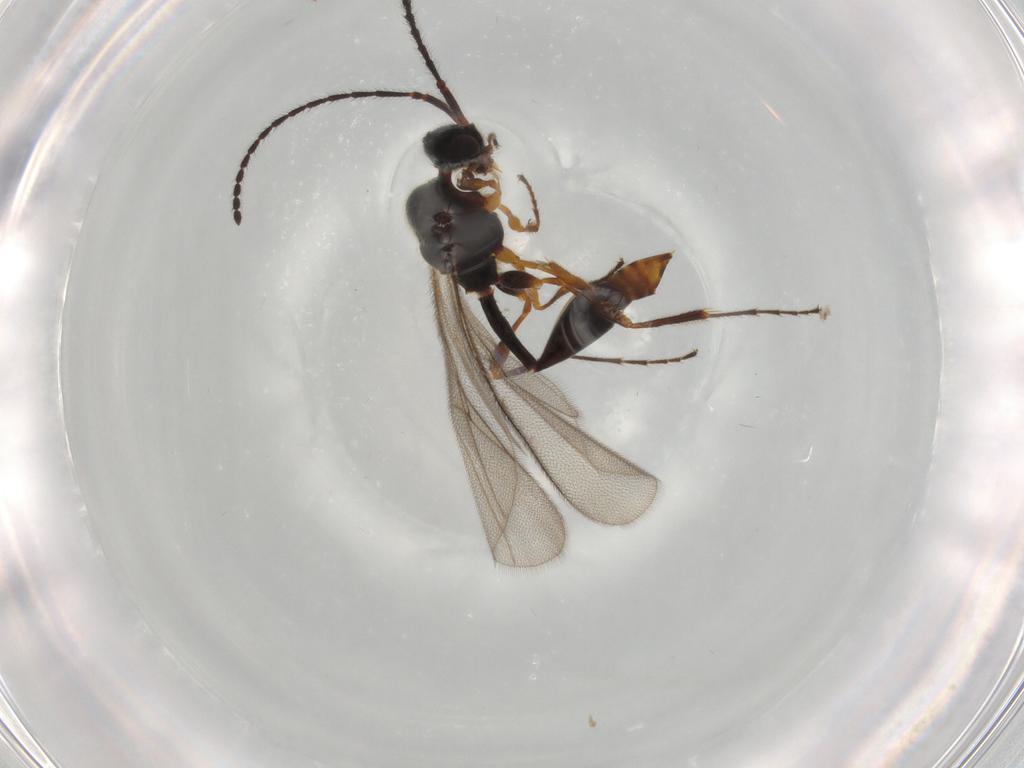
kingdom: Animalia
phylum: Arthropoda
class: Insecta
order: Hymenoptera
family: Diapriidae
